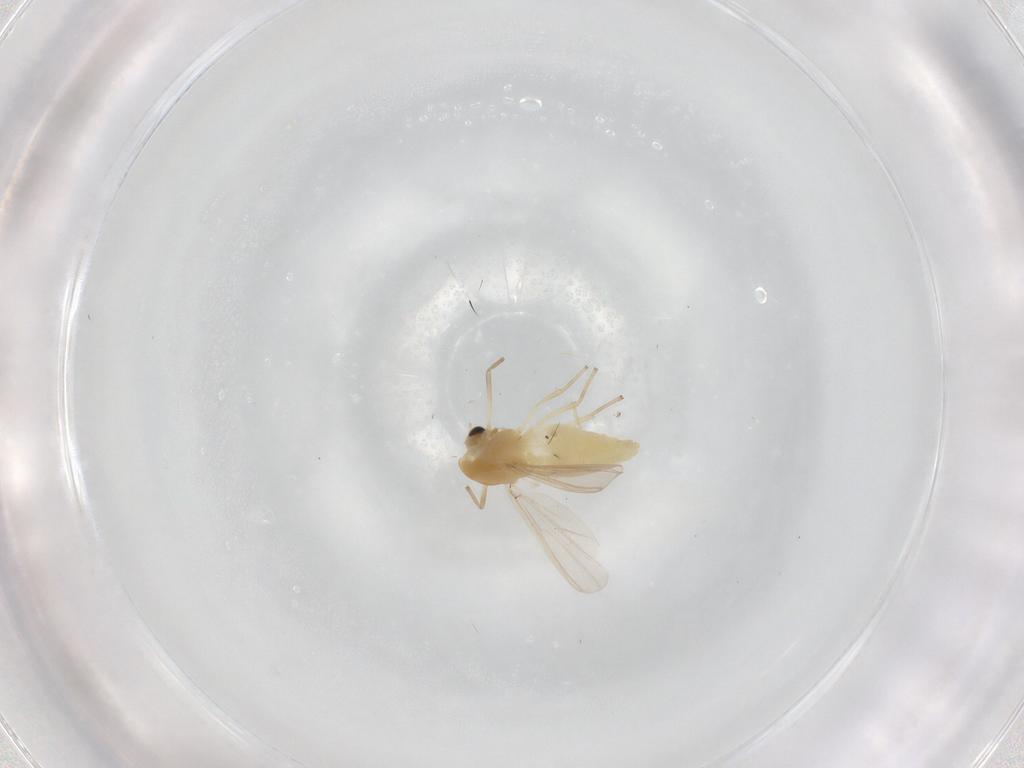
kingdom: Animalia
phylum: Arthropoda
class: Insecta
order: Diptera
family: Chironomidae
